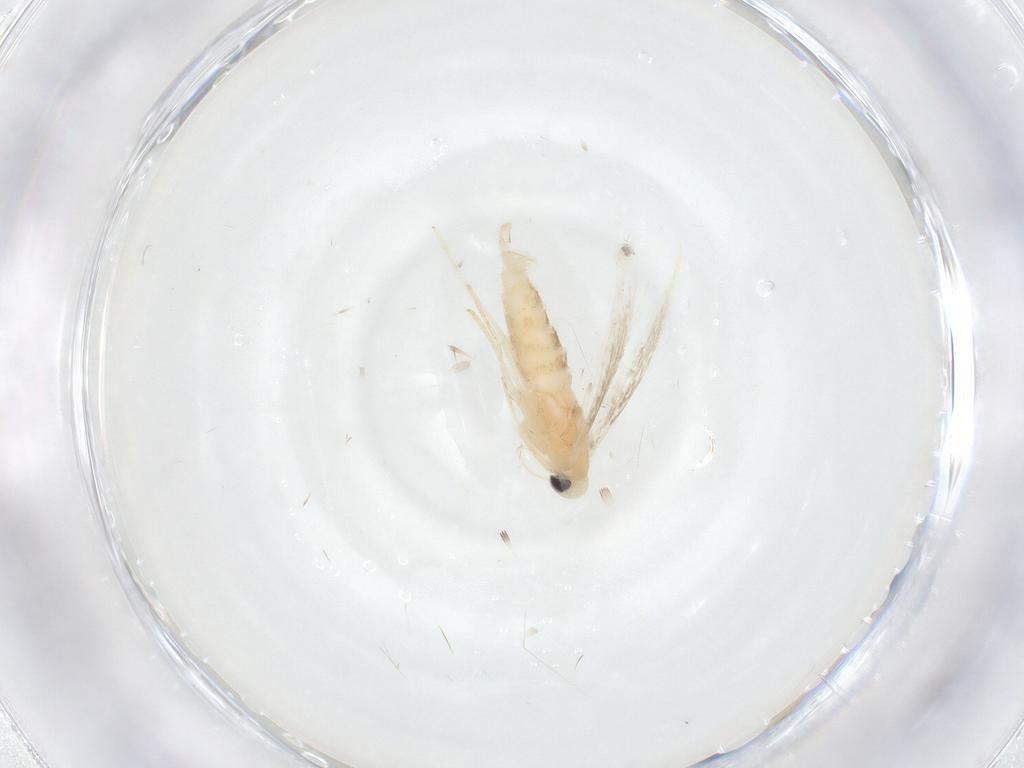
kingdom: Animalia
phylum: Arthropoda
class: Insecta
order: Lepidoptera
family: Gracillariidae
